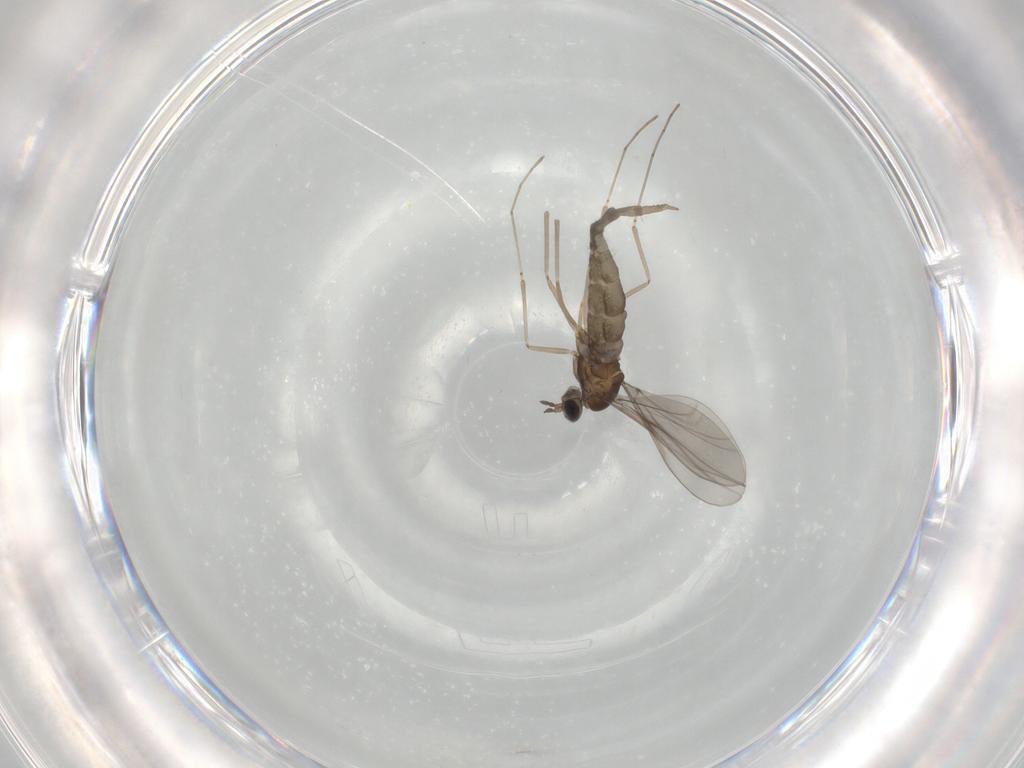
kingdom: Animalia
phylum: Arthropoda
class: Insecta
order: Diptera
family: Cecidomyiidae
